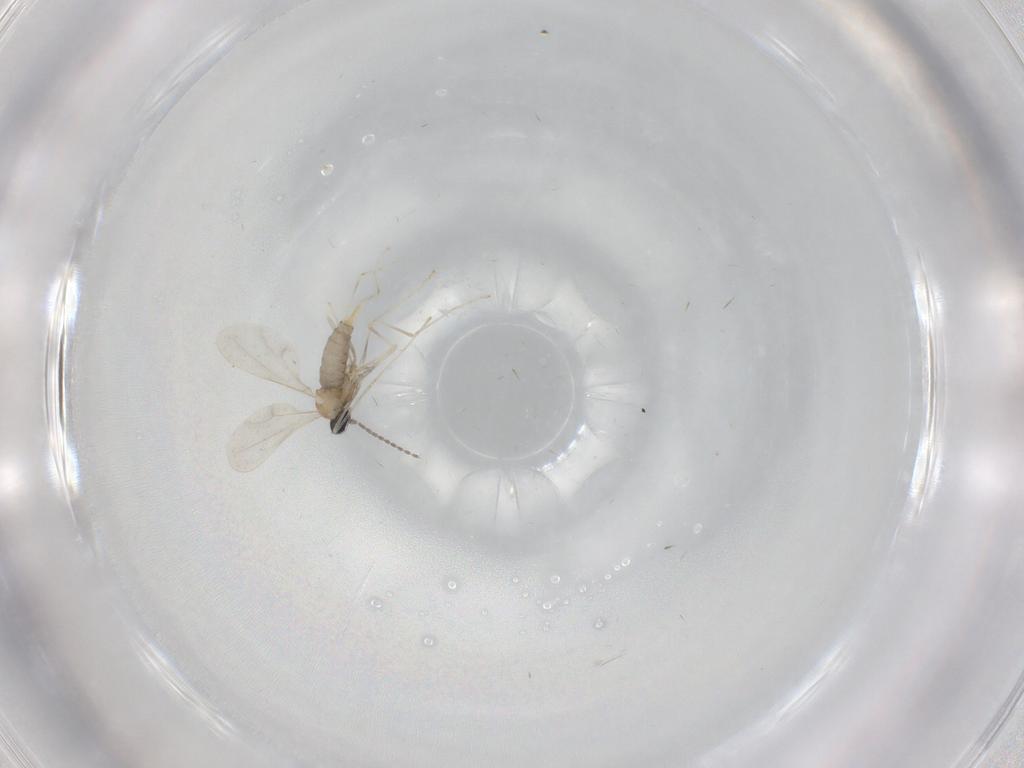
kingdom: Animalia
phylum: Arthropoda
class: Insecta
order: Diptera
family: Cecidomyiidae
